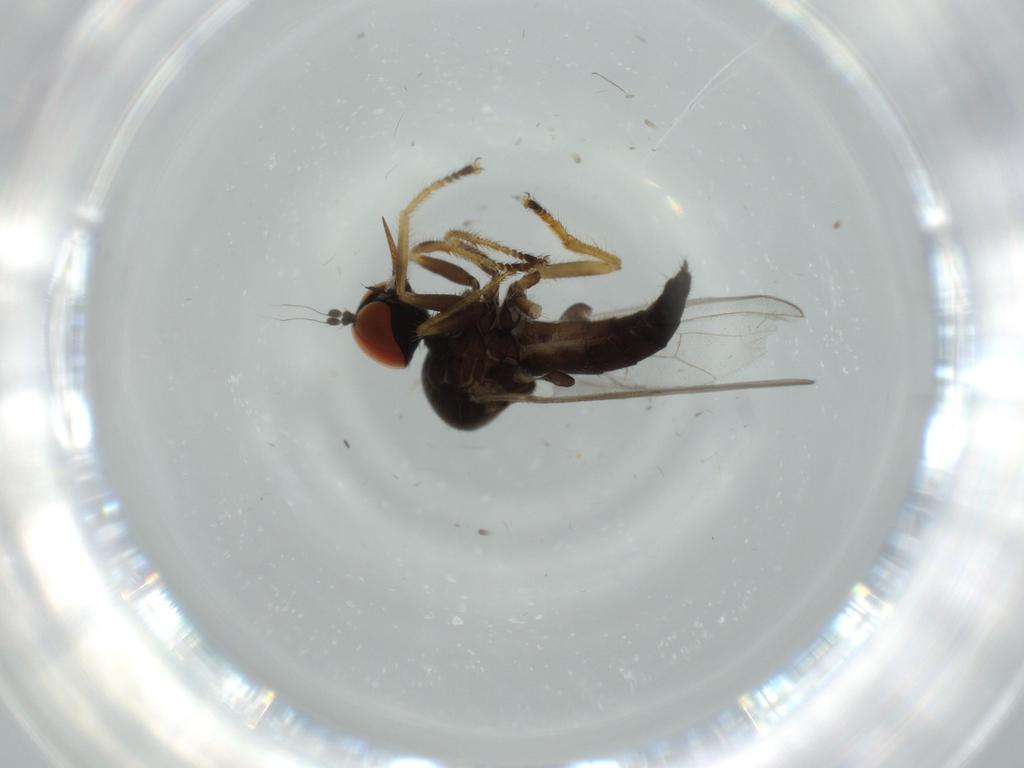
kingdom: Animalia
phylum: Arthropoda
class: Insecta
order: Diptera
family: Cecidomyiidae
